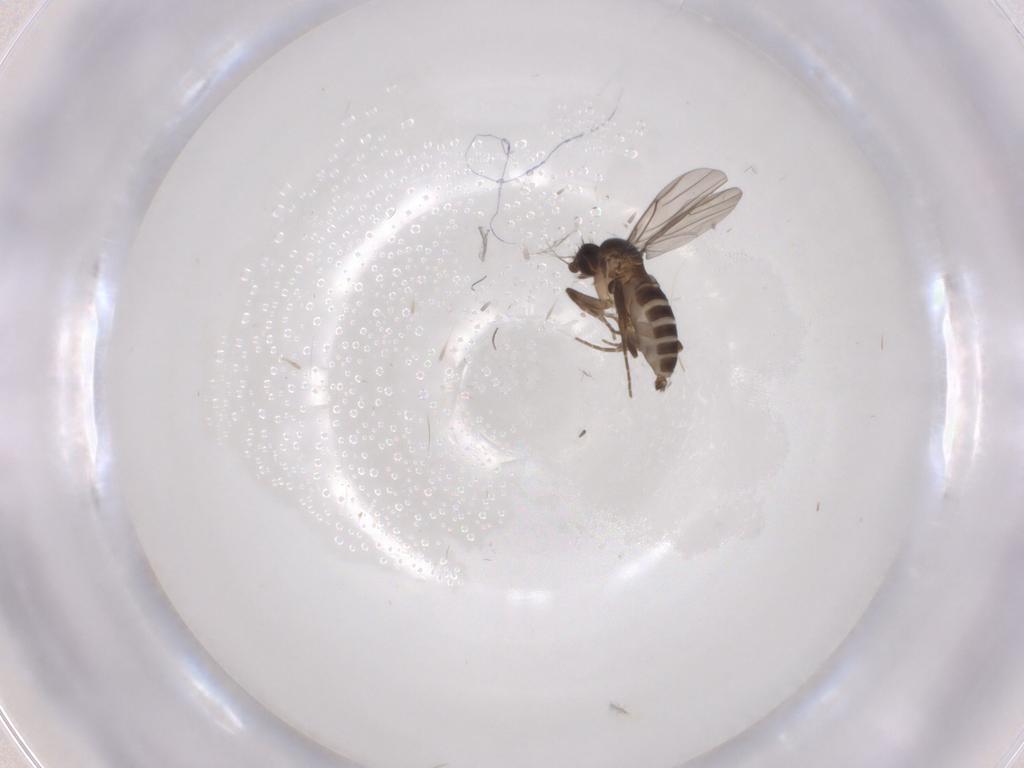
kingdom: Animalia
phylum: Arthropoda
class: Insecta
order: Diptera
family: Phoridae
